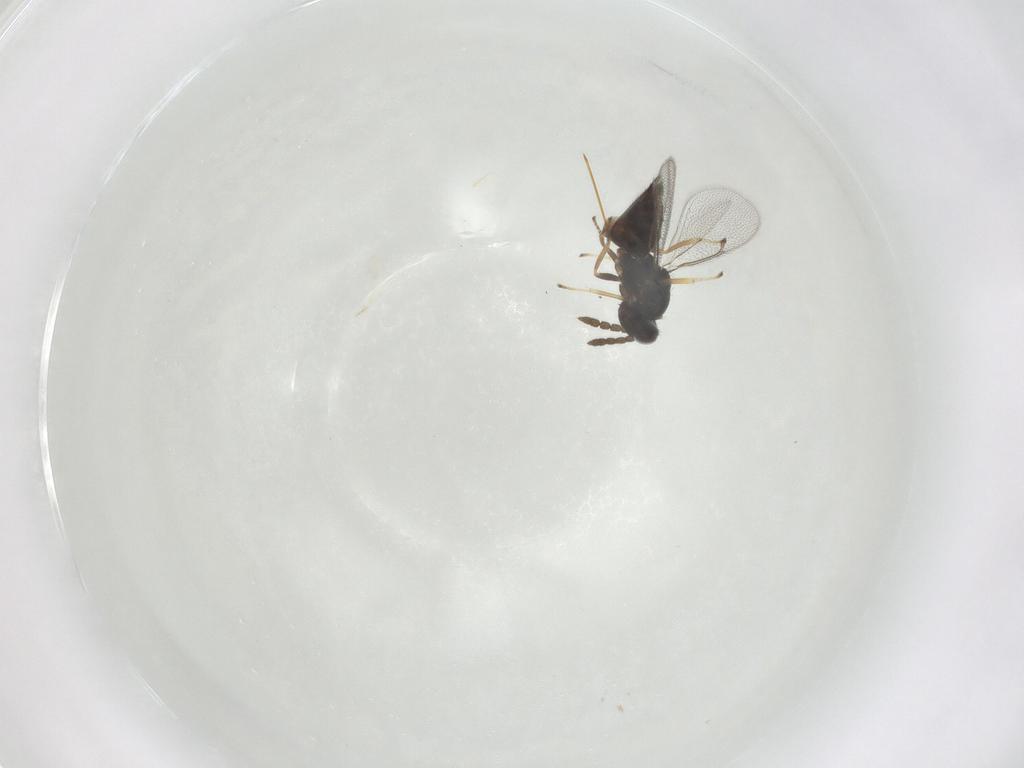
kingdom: Animalia
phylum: Arthropoda
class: Insecta
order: Hymenoptera
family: Eulophidae
